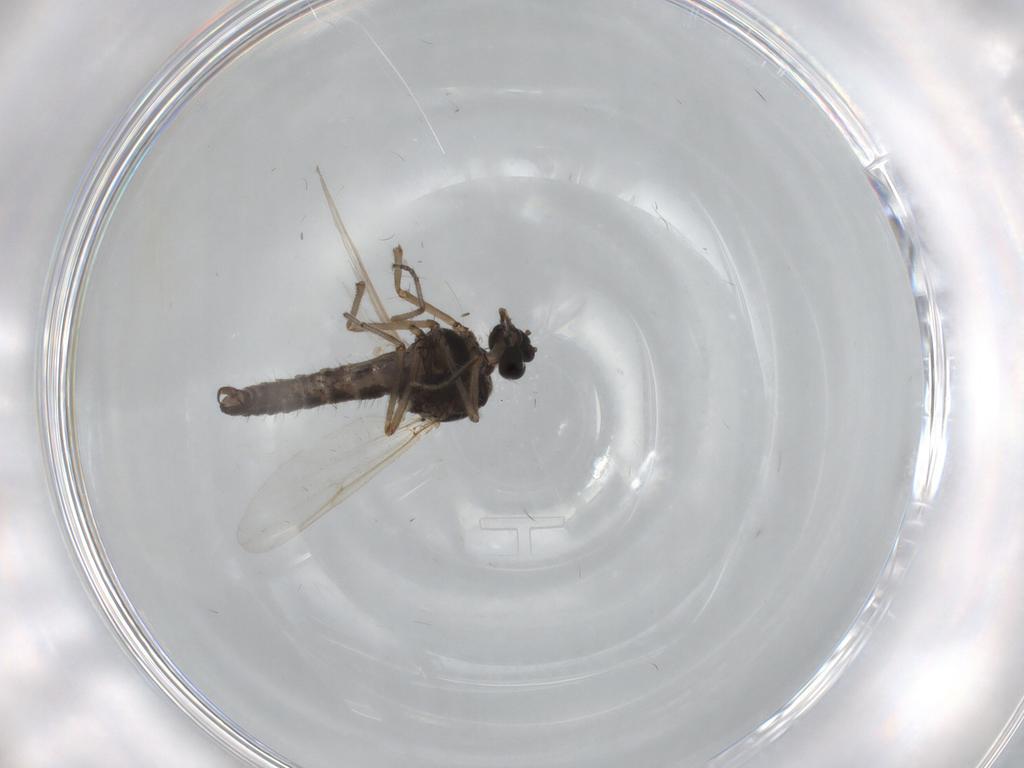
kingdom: Animalia
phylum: Arthropoda
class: Insecta
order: Diptera
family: Ceratopogonidae
